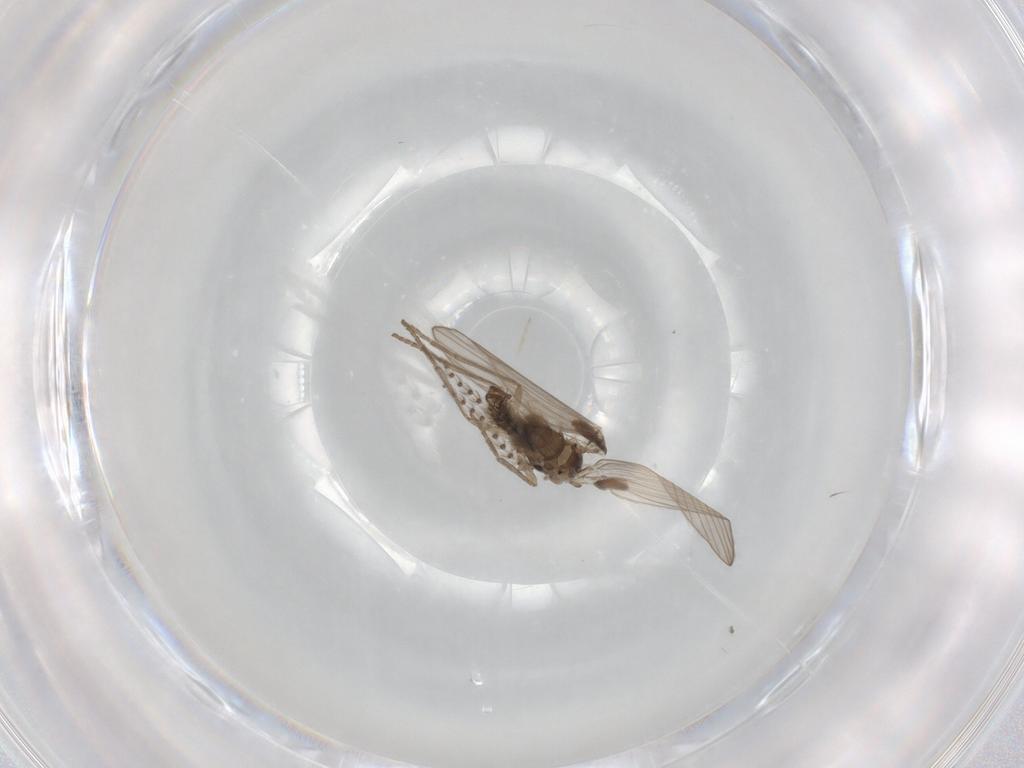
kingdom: Animalia
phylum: Arthropoda
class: Insecta
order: Diptera
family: Psychodidae
